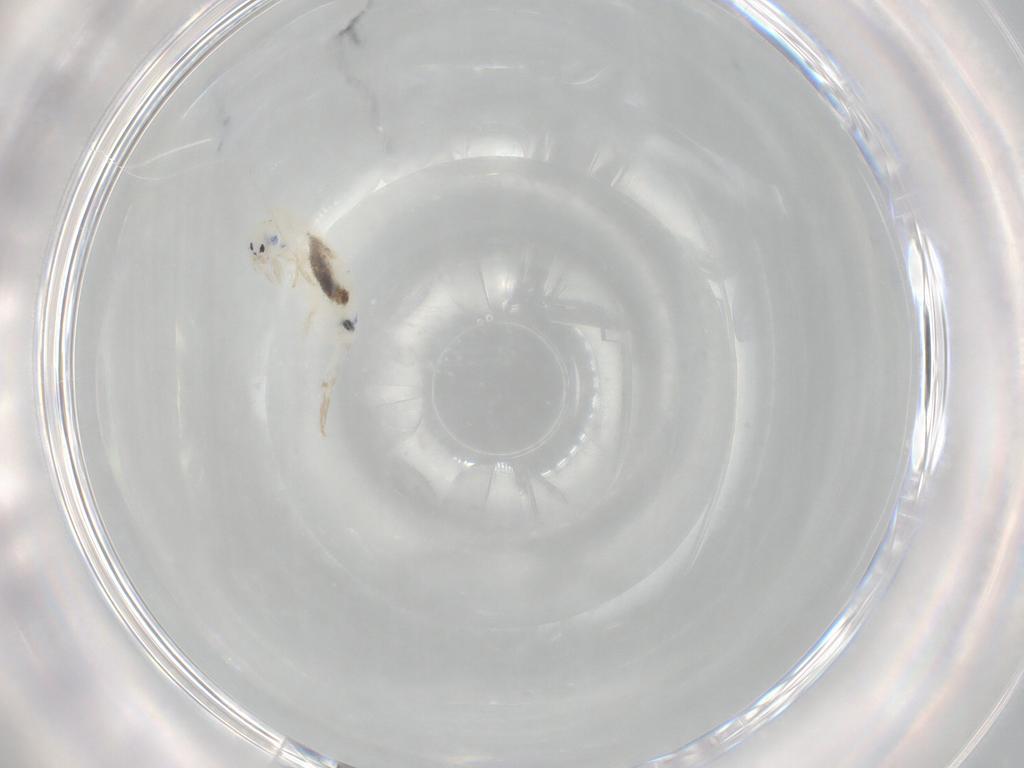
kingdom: Animalia
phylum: Arthropoda
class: Collembola
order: Entomobryomorpha
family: Entomobryidae
